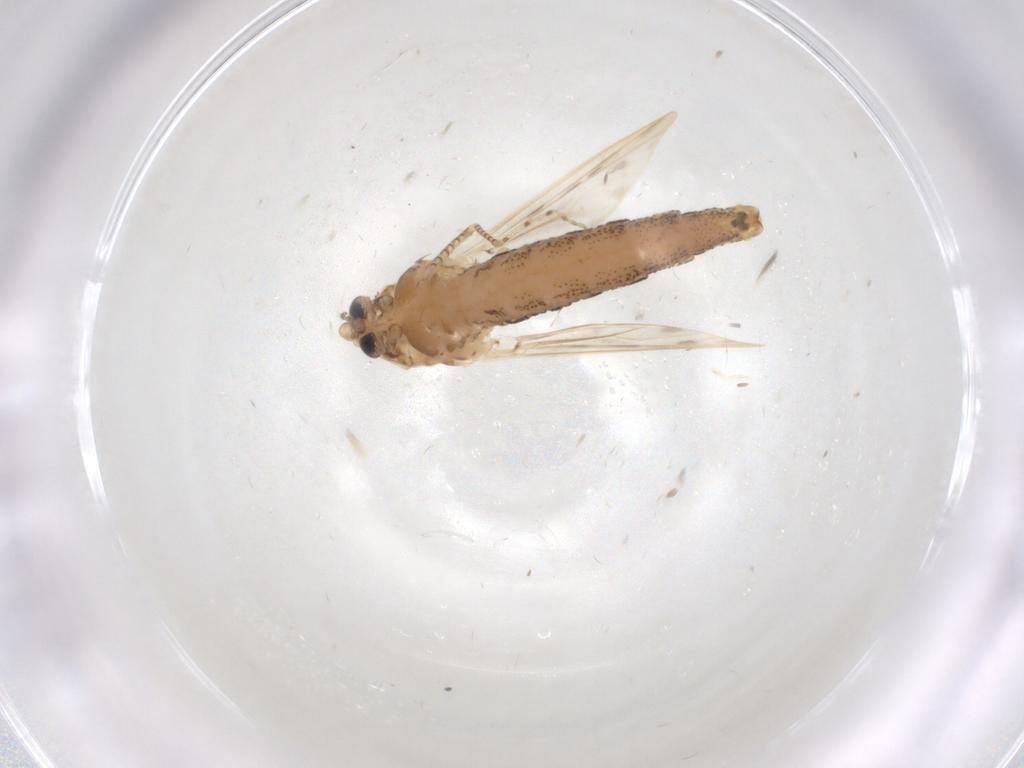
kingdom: Animalia
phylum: Arthropoda
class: Insecta
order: Diptera
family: Chaoboridae
